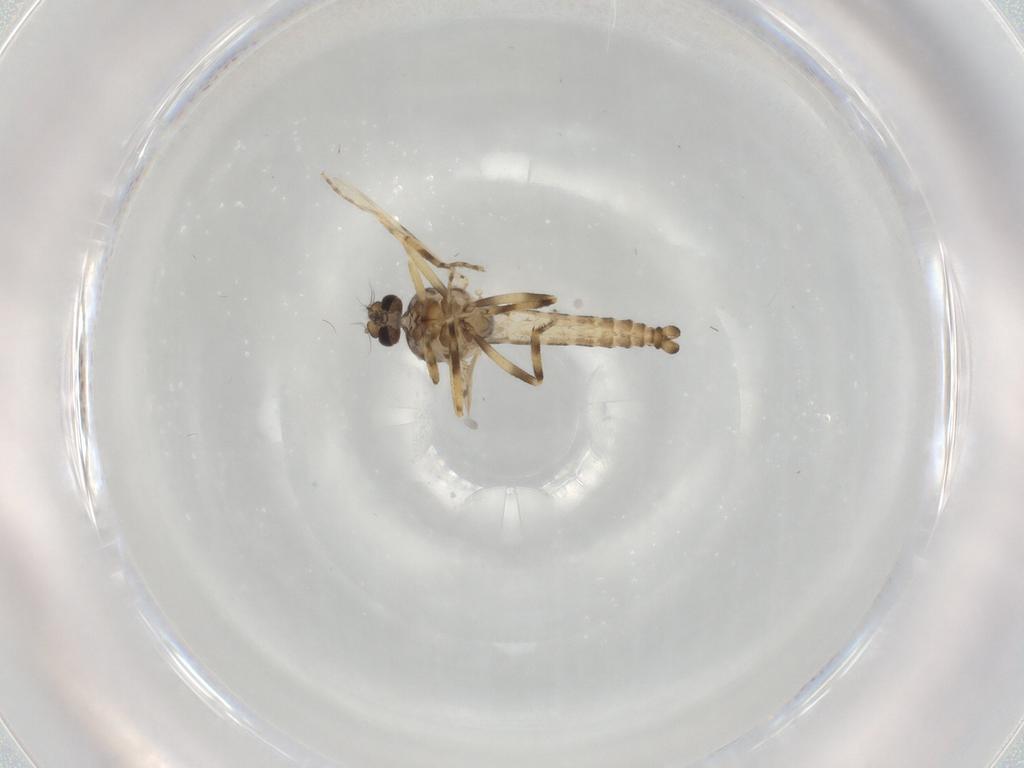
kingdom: Animalia
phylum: Arthropoda
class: Insecta
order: Diptera
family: Ceratopogonidae
